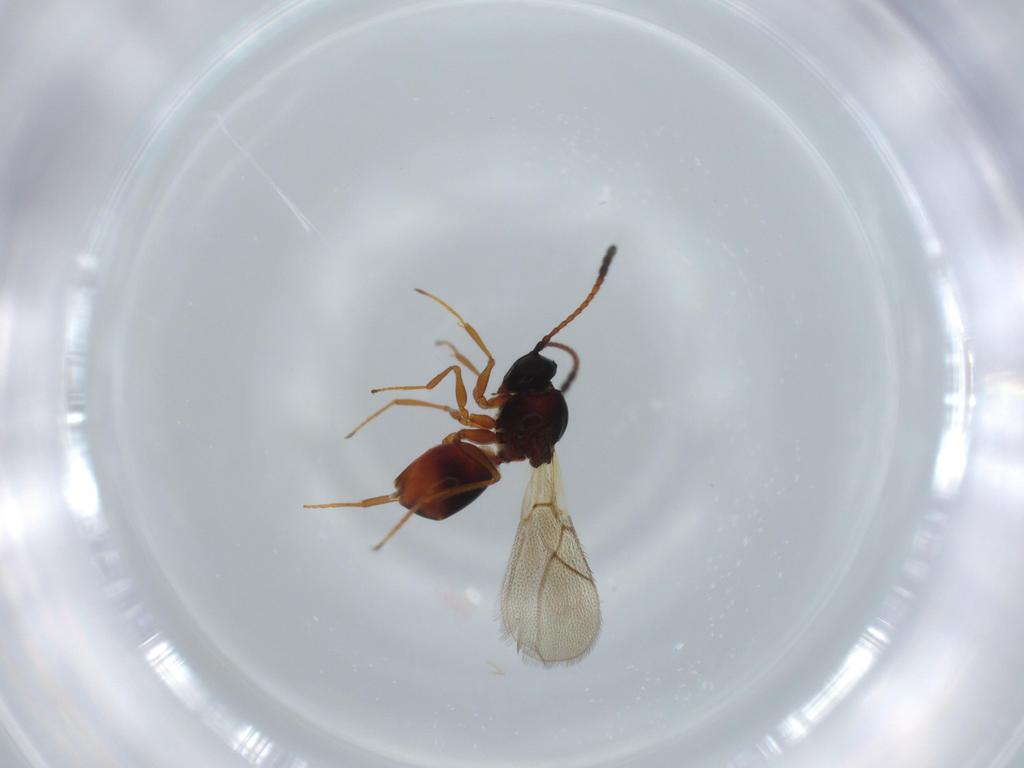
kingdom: Animalia
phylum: Arthropoda
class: Insecta
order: Hymenoptera
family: Figitidae
